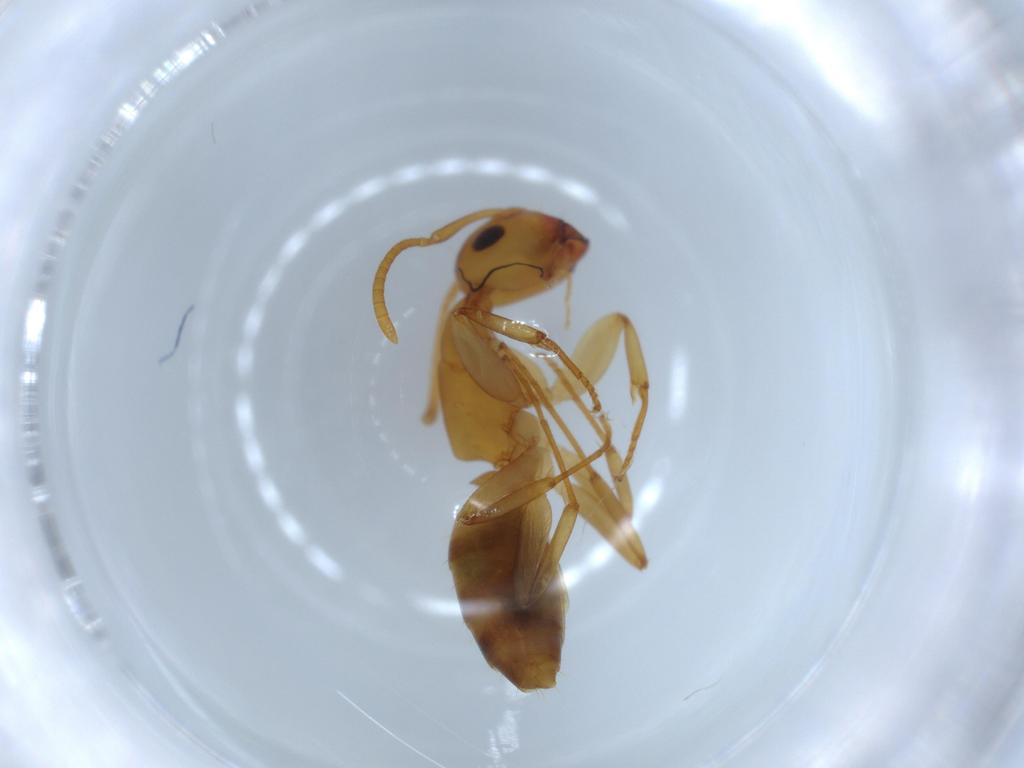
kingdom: Animalia
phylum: Arthropoda
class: Insecta
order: Hymenoptera
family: Formicidae
